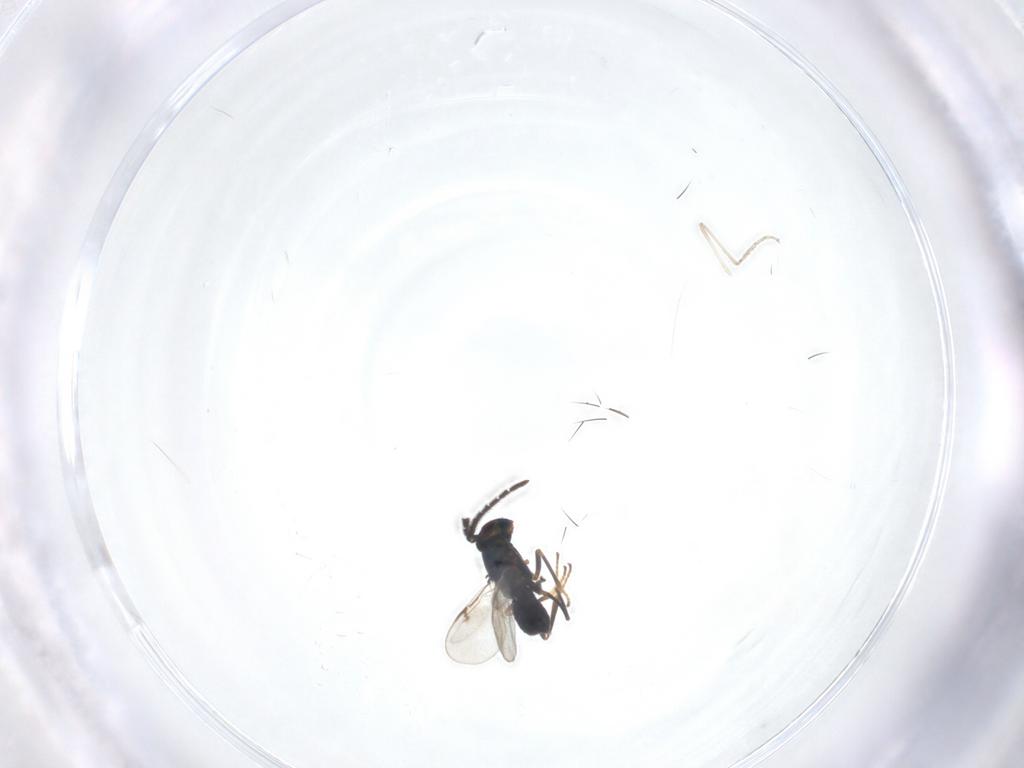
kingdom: Animalia
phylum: Arthropoda
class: Insecta
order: Hymenoptera
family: Encyrtidae
